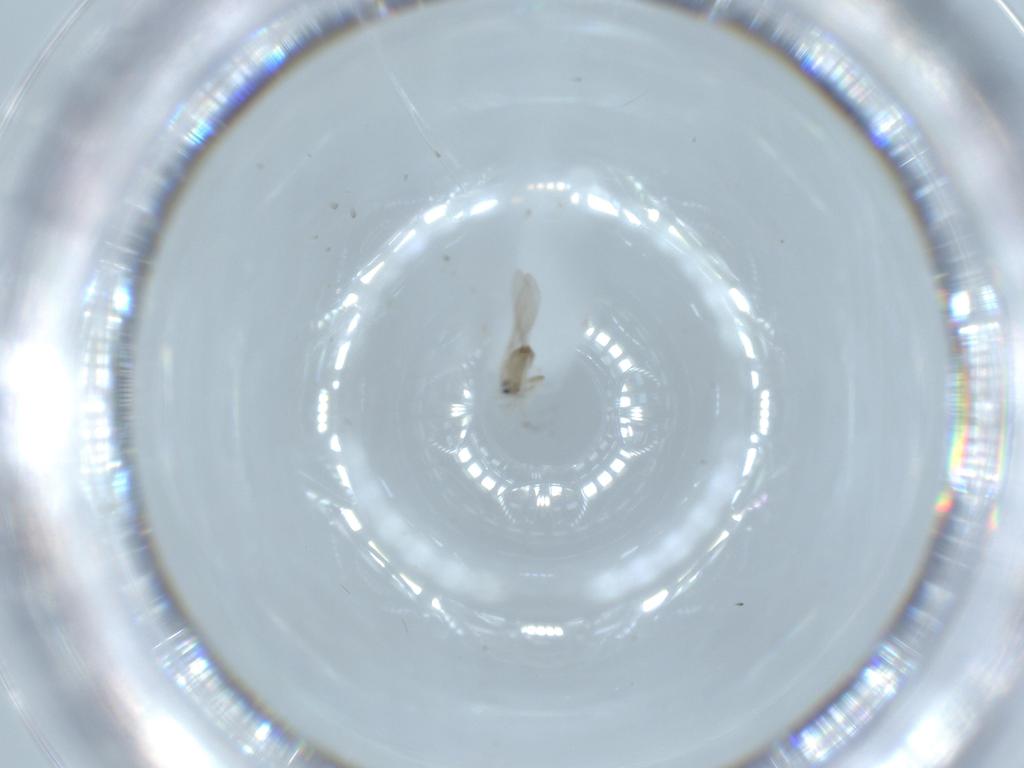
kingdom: Animalia
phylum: Arthropoda
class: Insecta
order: Diptera
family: Cecidomyiidae
